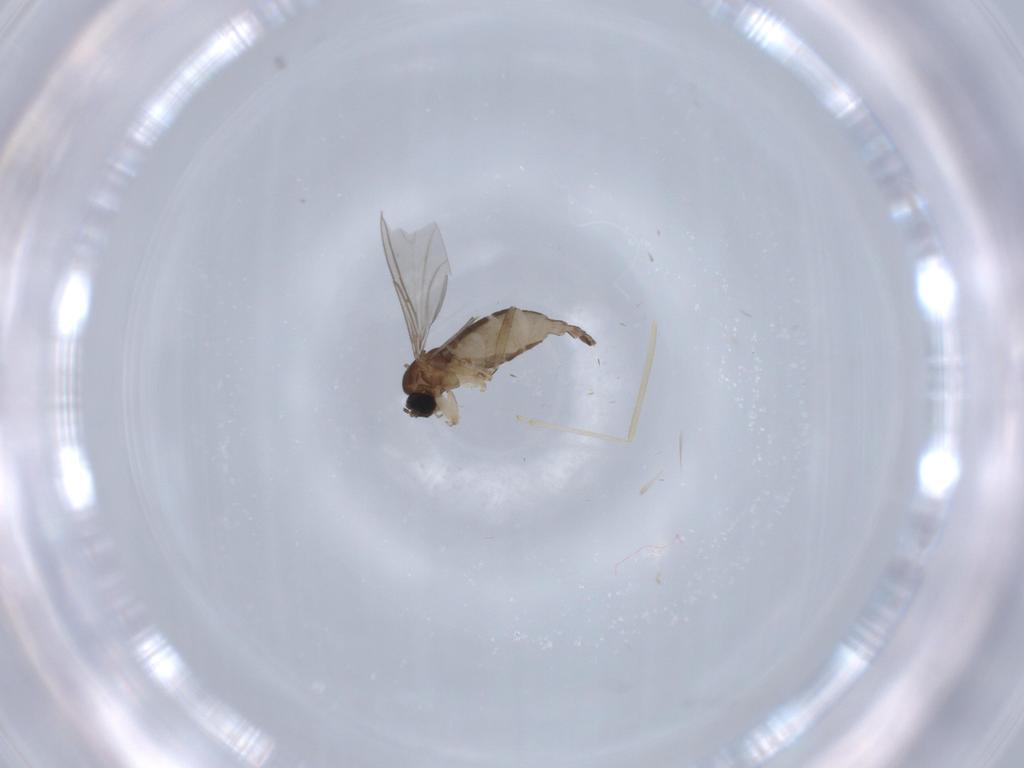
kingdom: Animalia
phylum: Arthropoda
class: Insecta
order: Diptera
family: Sciaridae
